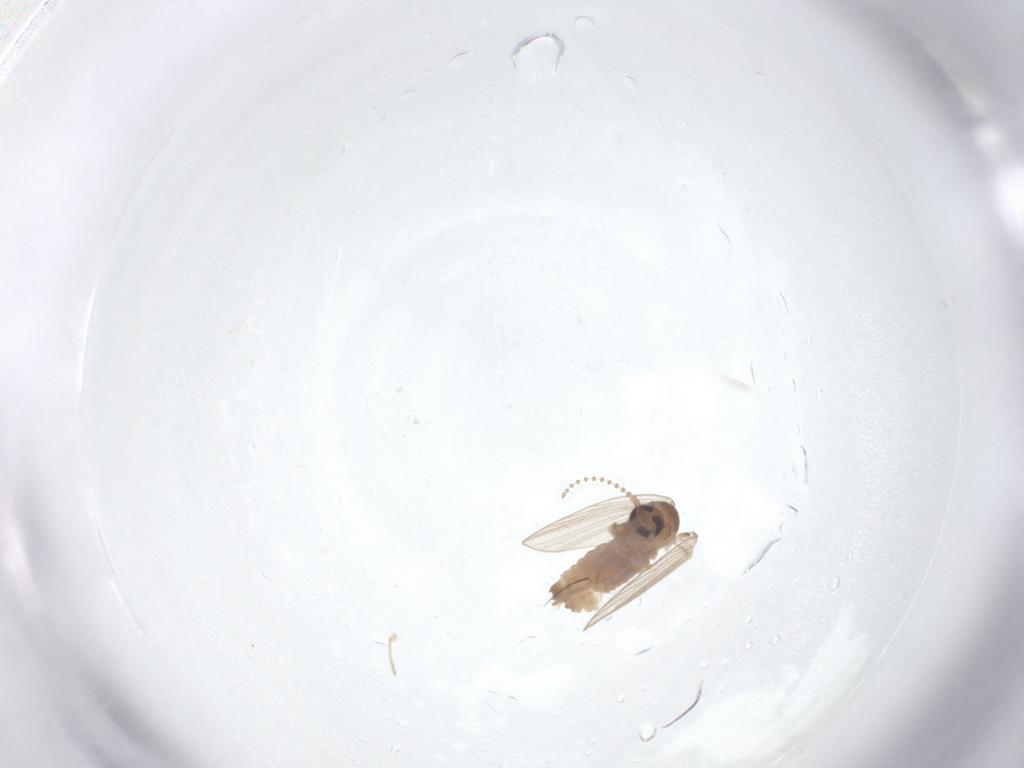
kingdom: Animalia
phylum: Arthropoda
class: Insecta
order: Diptera
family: Psychodidae
